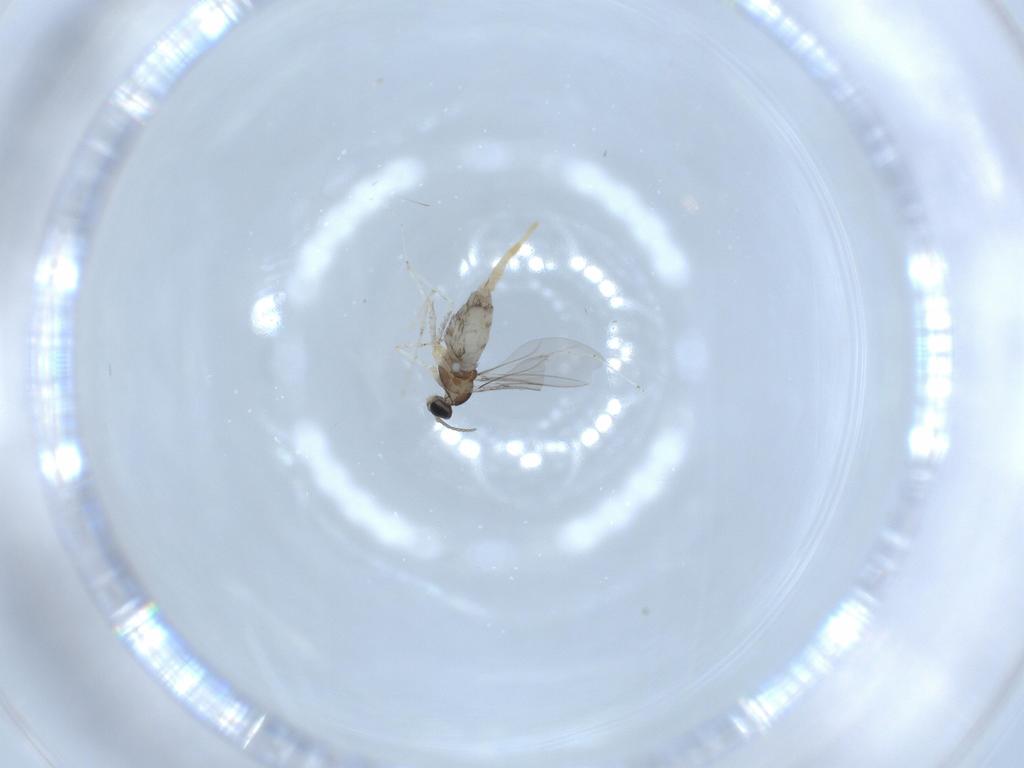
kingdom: Animalia
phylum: Arthropoda
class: Insecta
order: Diptera
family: Cecidomyiidae
